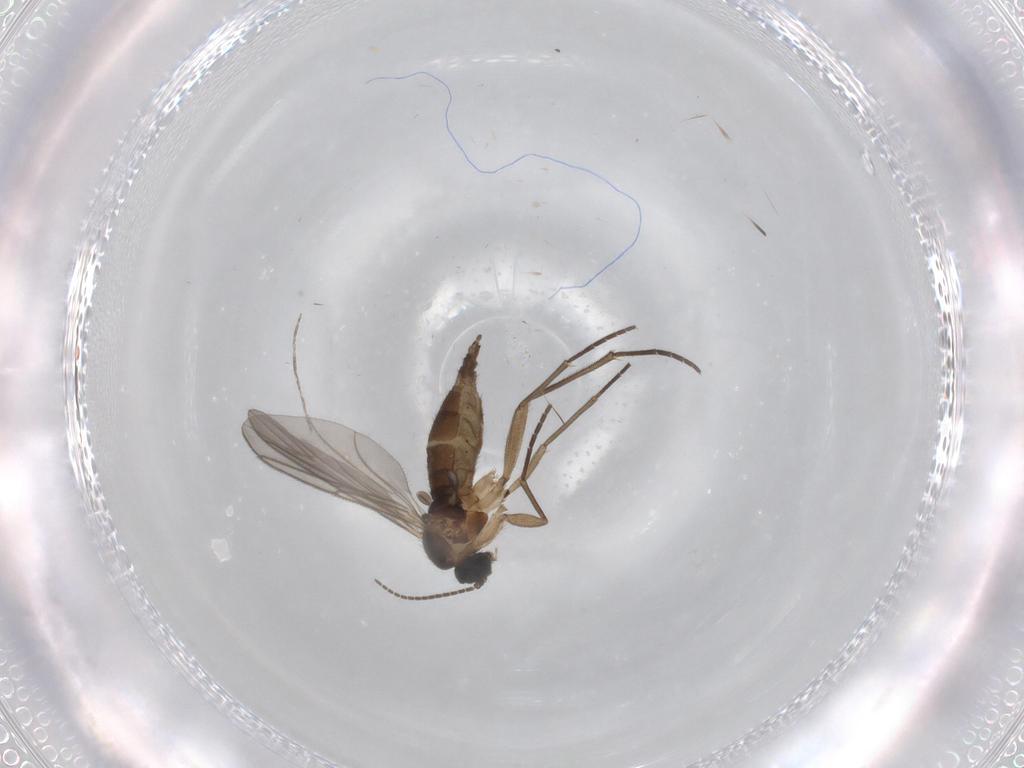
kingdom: Animalia
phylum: Arthropoda
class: Insecta
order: Diptera
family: Sciaridae
